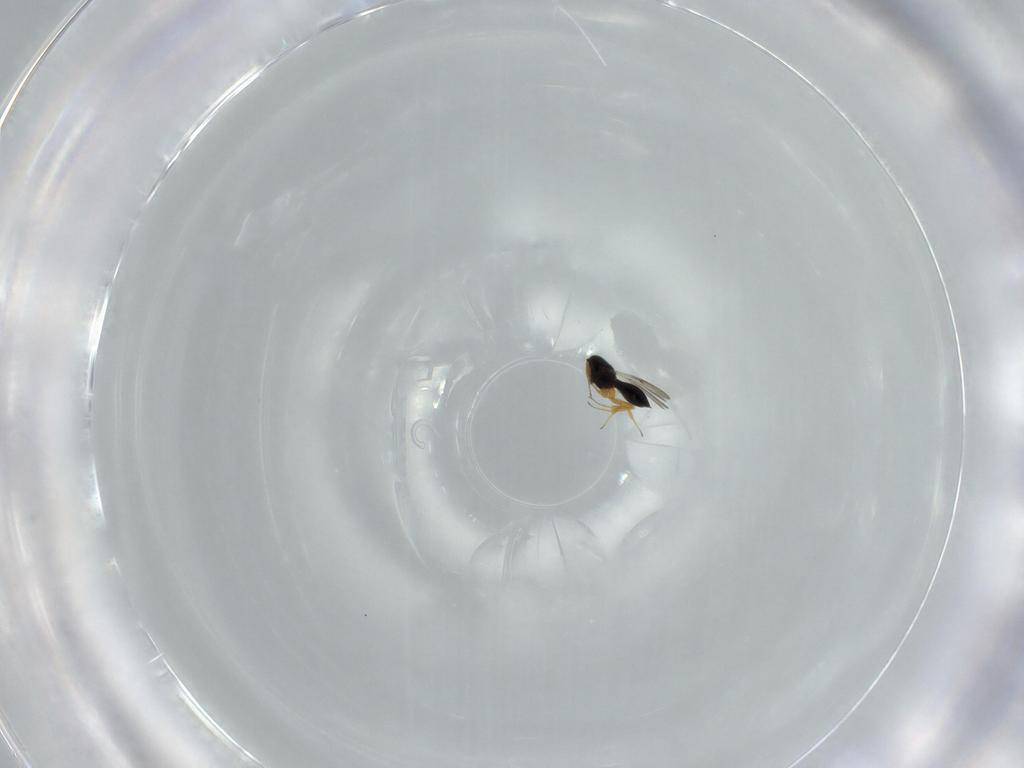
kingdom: Animalia
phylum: Arthropoda
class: Insecta
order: Hymenoptera
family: Scelionidae
